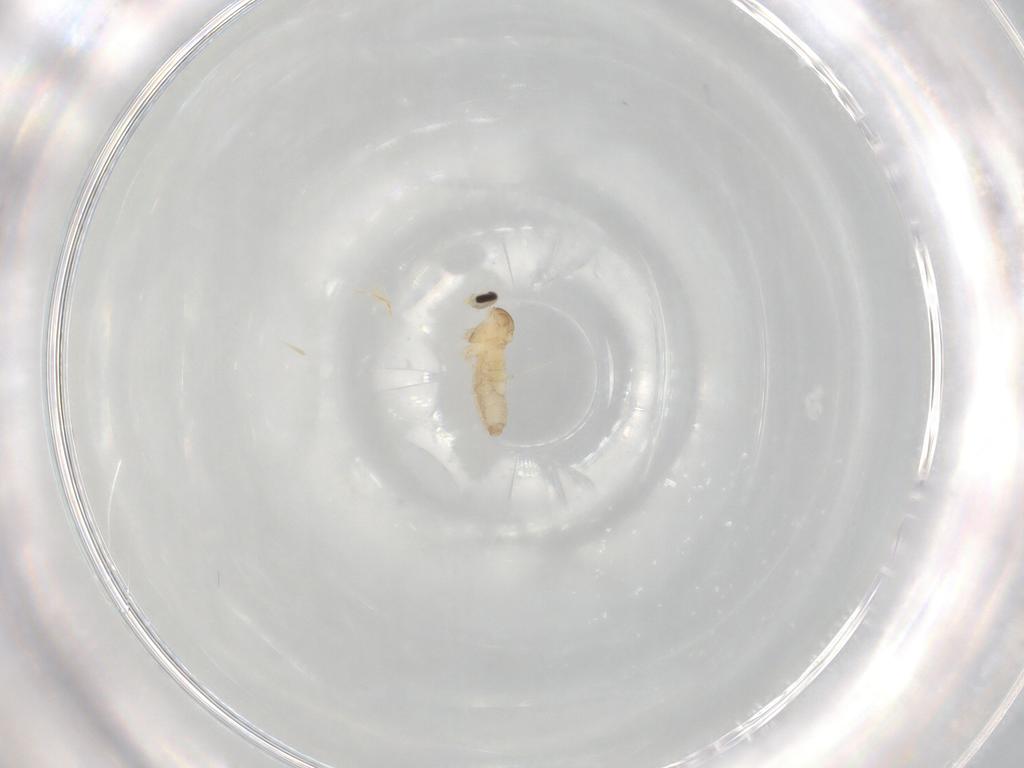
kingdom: Animalia
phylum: Arthropoda
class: Insecta
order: Diptera
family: Cecidomyiidae
